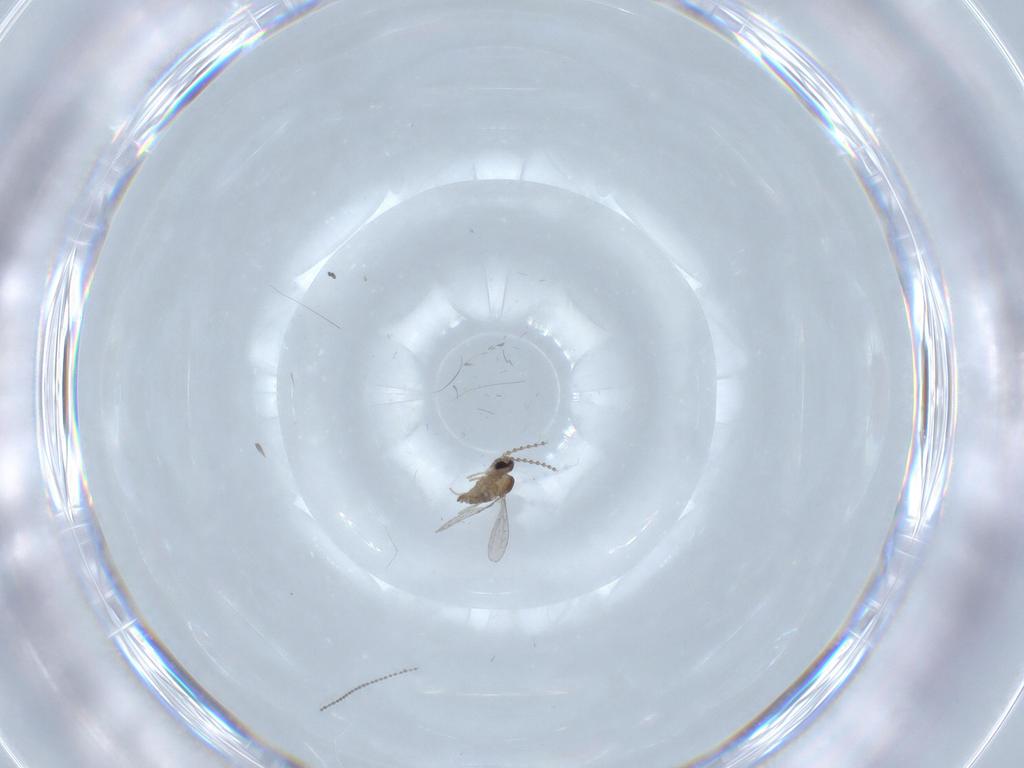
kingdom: Animalia
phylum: Arthropoda
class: Insecta
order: Diptera
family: Cecidomyiidae
